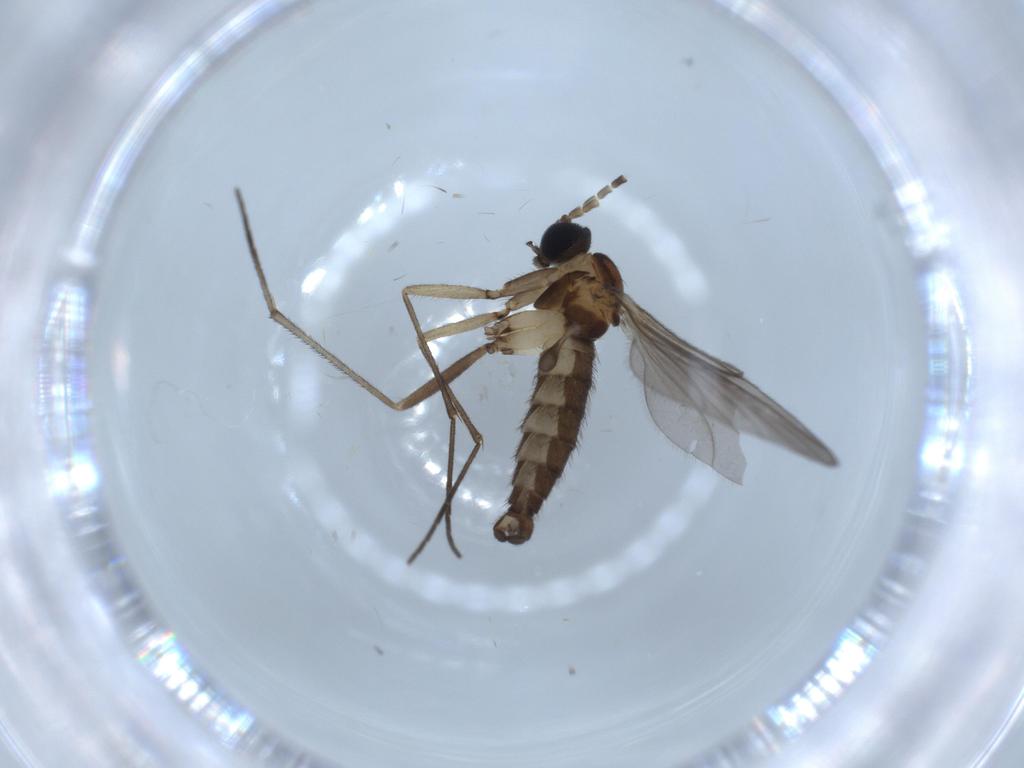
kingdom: Animalia
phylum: Arthropoda
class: Insecta
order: Diptera
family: Sciaridae
